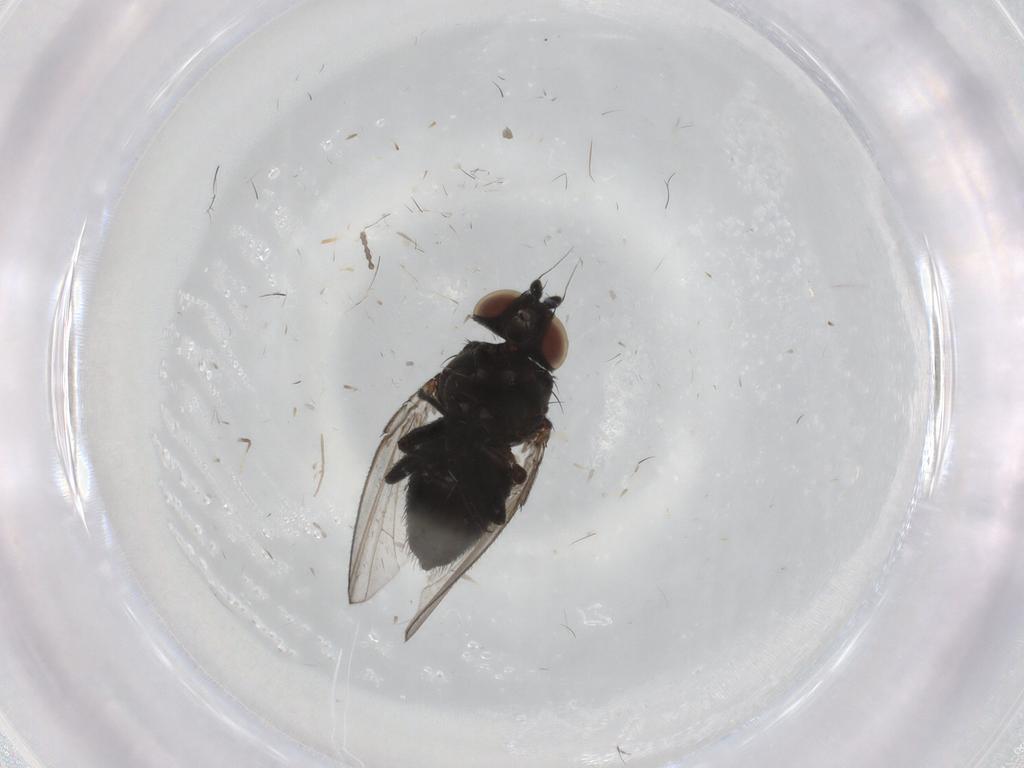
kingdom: Animalia
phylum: Arthropoda
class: Insecta
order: Diptera
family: Milichiidae
